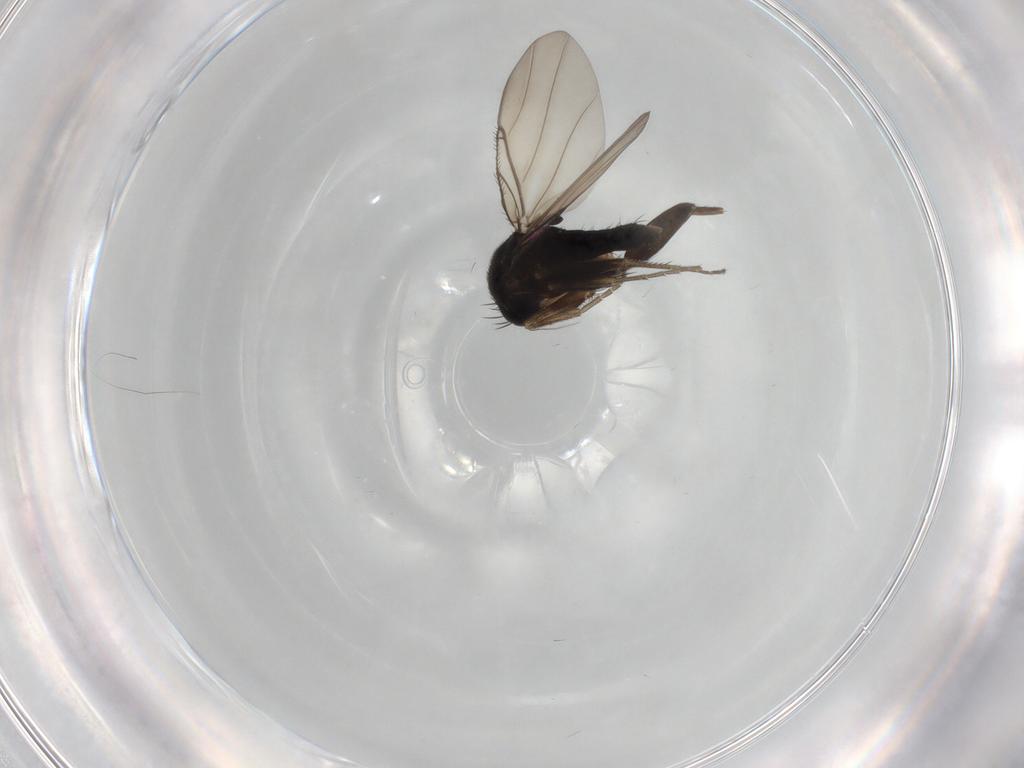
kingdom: Animalia
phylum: Arthropoda
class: Insecta
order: Diptera
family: Phoridae
